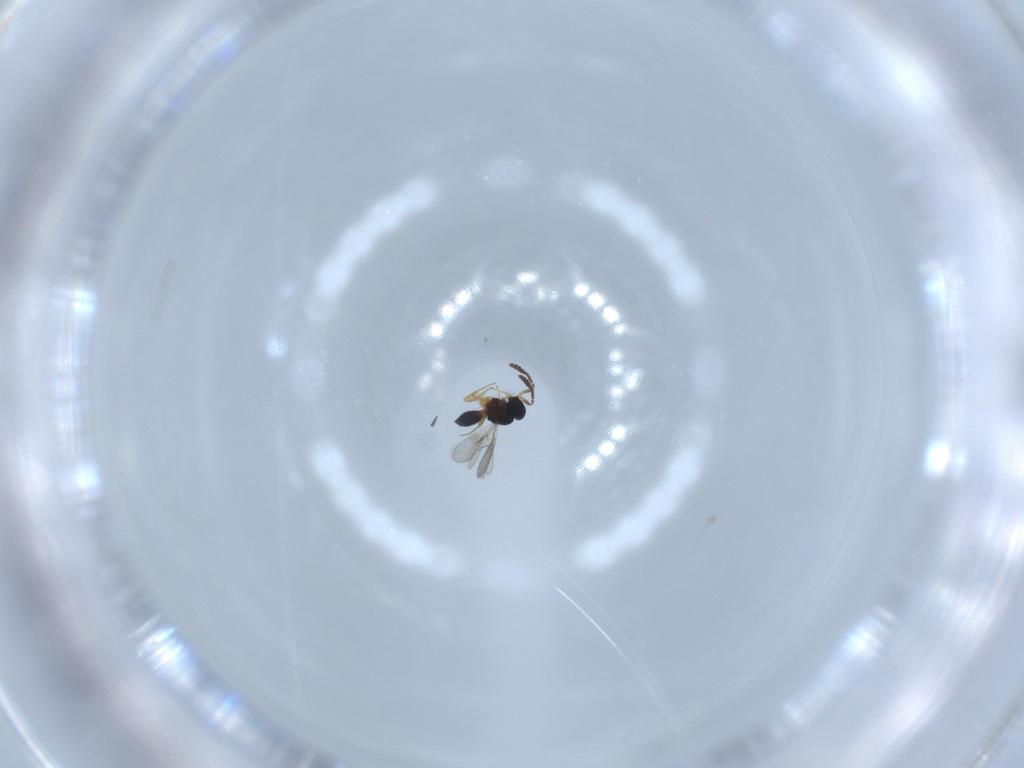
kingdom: Animalia
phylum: Arthropoda
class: Insecta
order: Hymenoptera
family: Scelionidae
